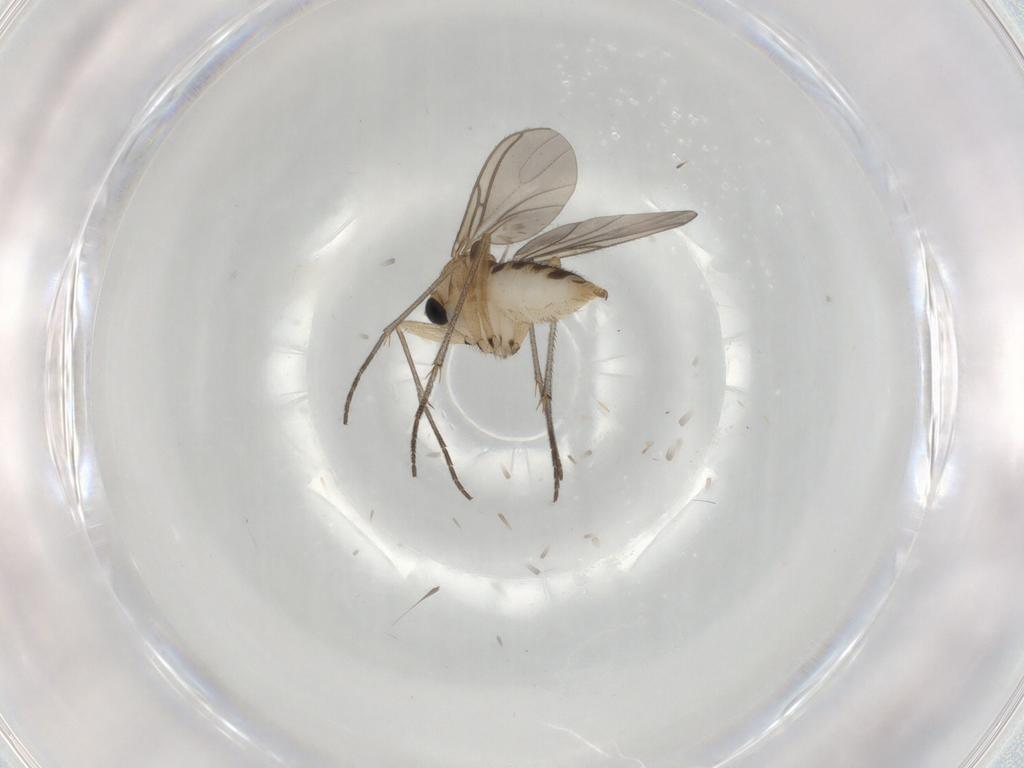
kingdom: Animalia
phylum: Arthropoda
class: Insecta
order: Diptera
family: Sciaridae
